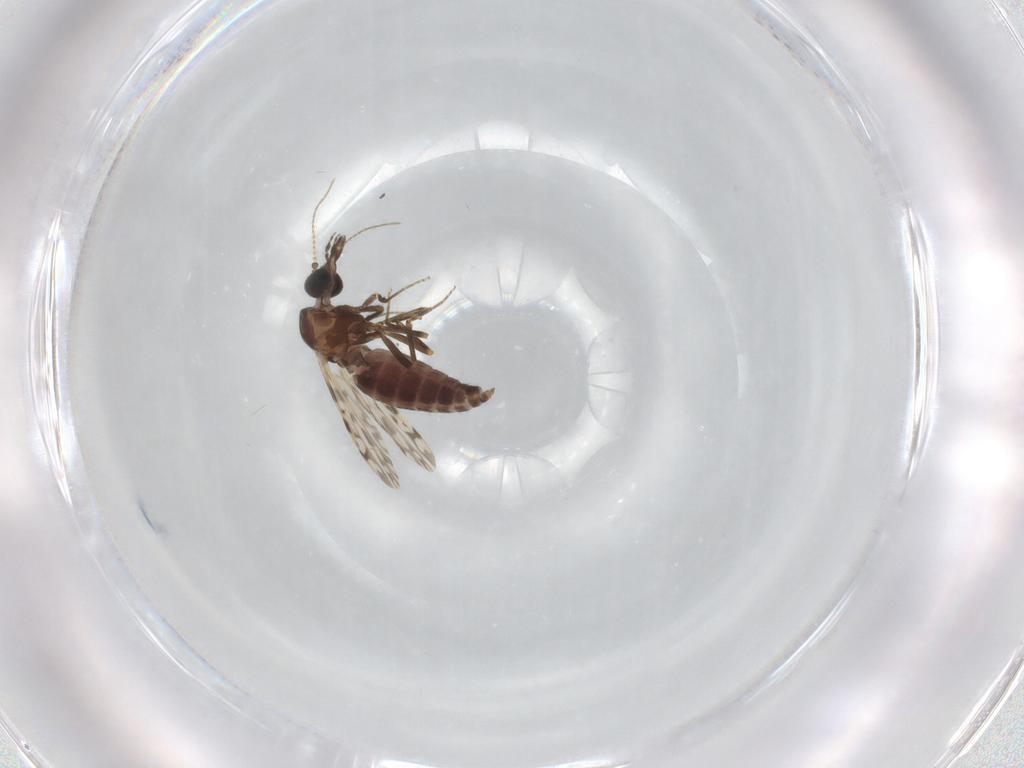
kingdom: Animalia
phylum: Arthropoda
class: Insecta
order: Diptera
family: Ceratopogonidae
